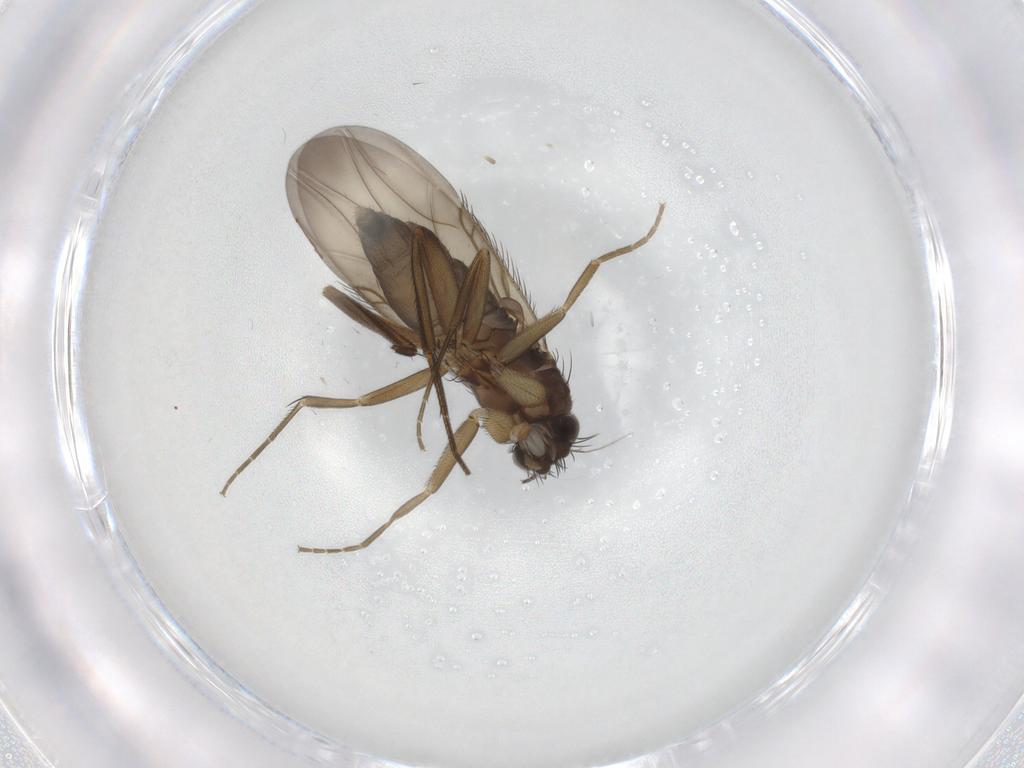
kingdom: Animalia
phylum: Arthropoda
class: Insecta
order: Diptera
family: Phoridae
